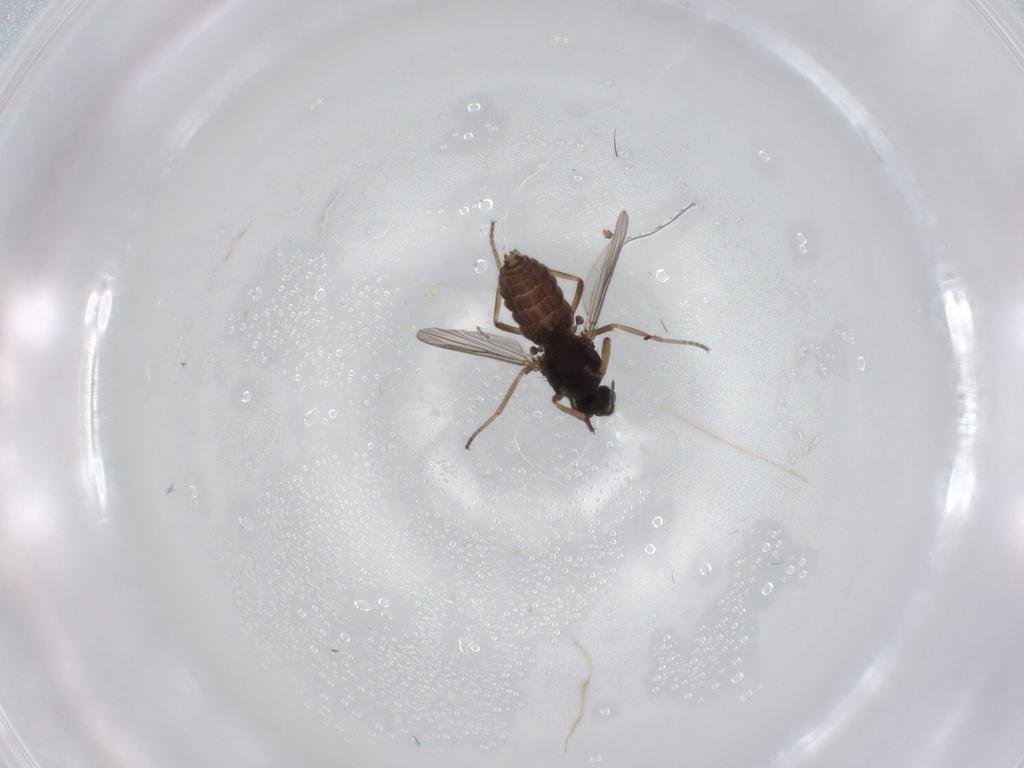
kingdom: Animalia
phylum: Arthropoda
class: Insecta
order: Diptera
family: Ceratopogonidae
